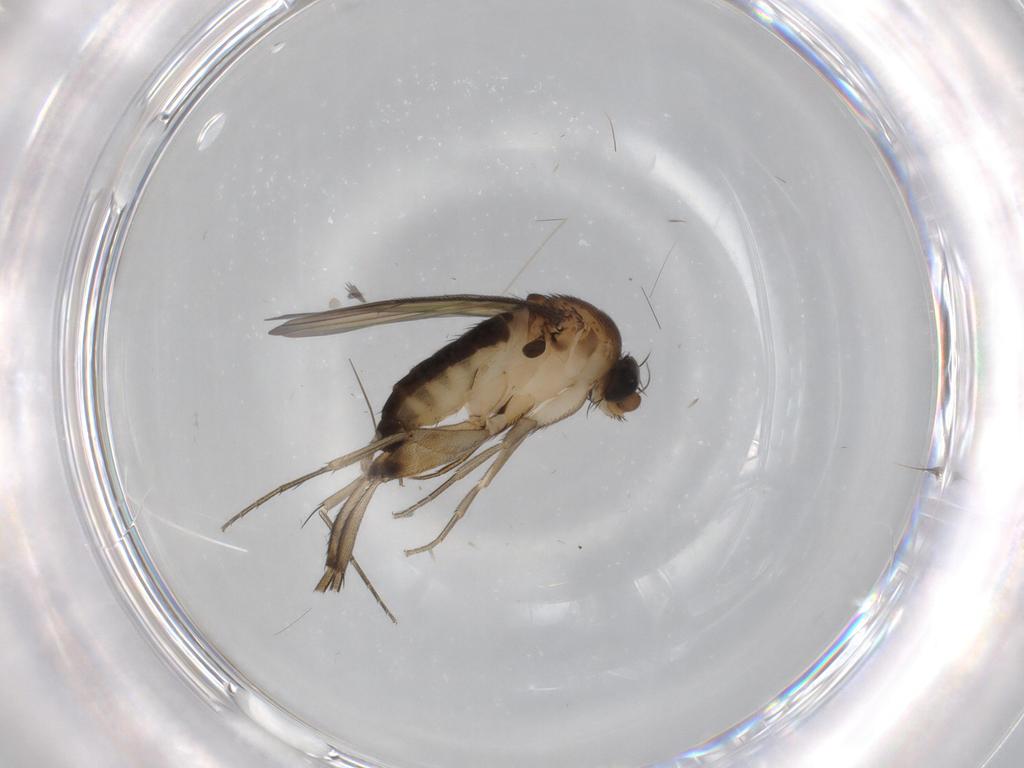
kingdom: Animalia
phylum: Arthropoda
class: Insecta
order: Diptera
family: Phoridae
